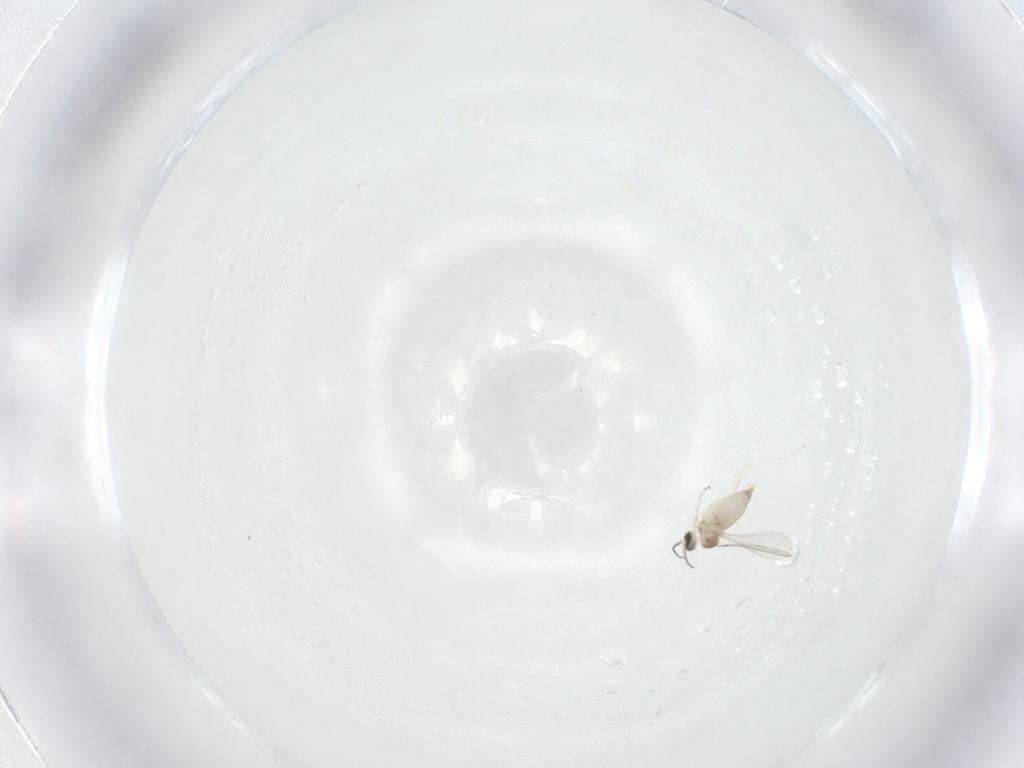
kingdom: Animalia
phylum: Arthropoda
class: Insecta
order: Diptera
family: Cecidomyiidae
